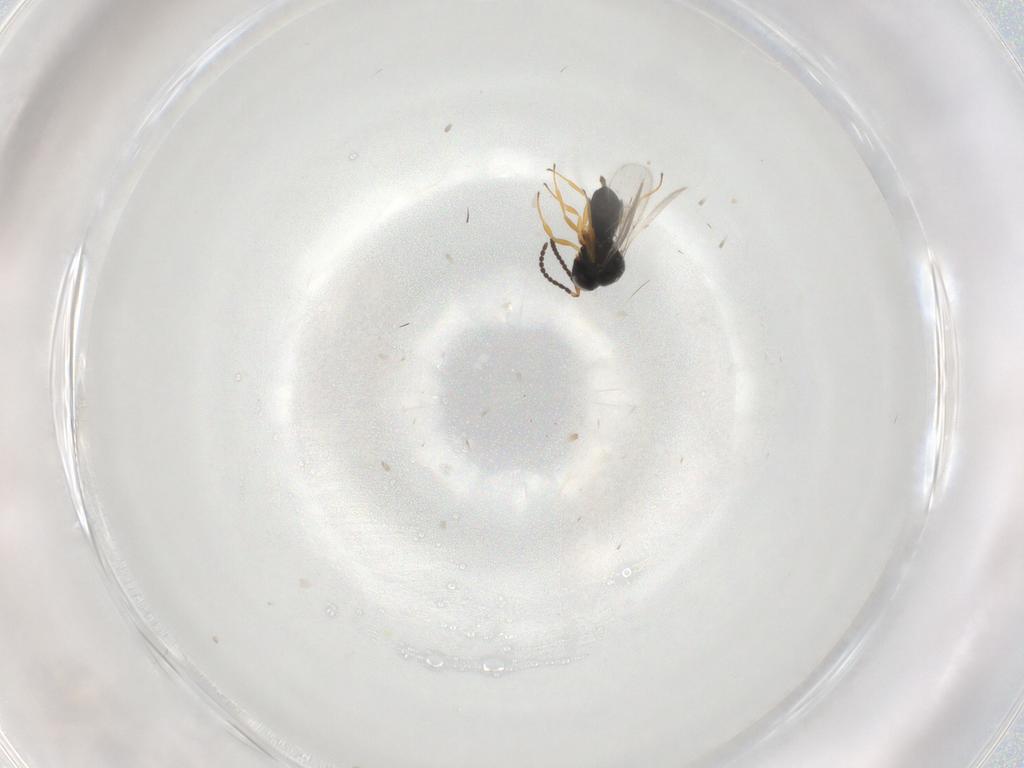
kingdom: Animalia
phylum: Arthropoda
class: Insecta
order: Hymenoptera
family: Scelionidae
